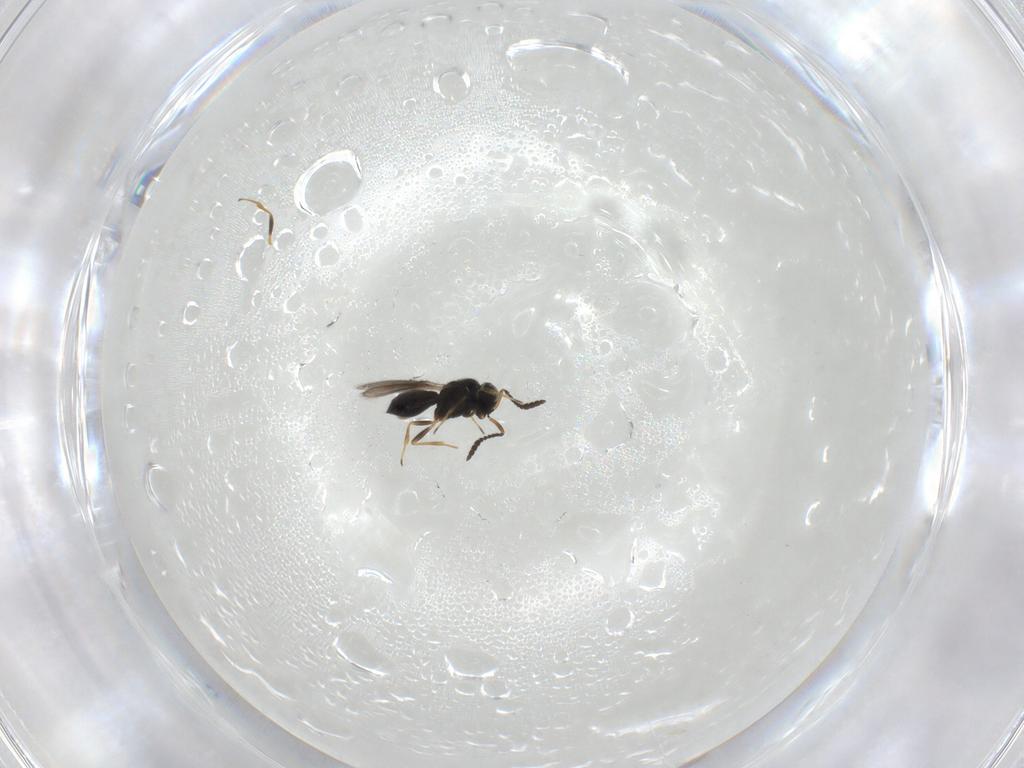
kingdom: Animalia
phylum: Arthropoda
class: Insecta
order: Hymenoptera
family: Scelionidae
